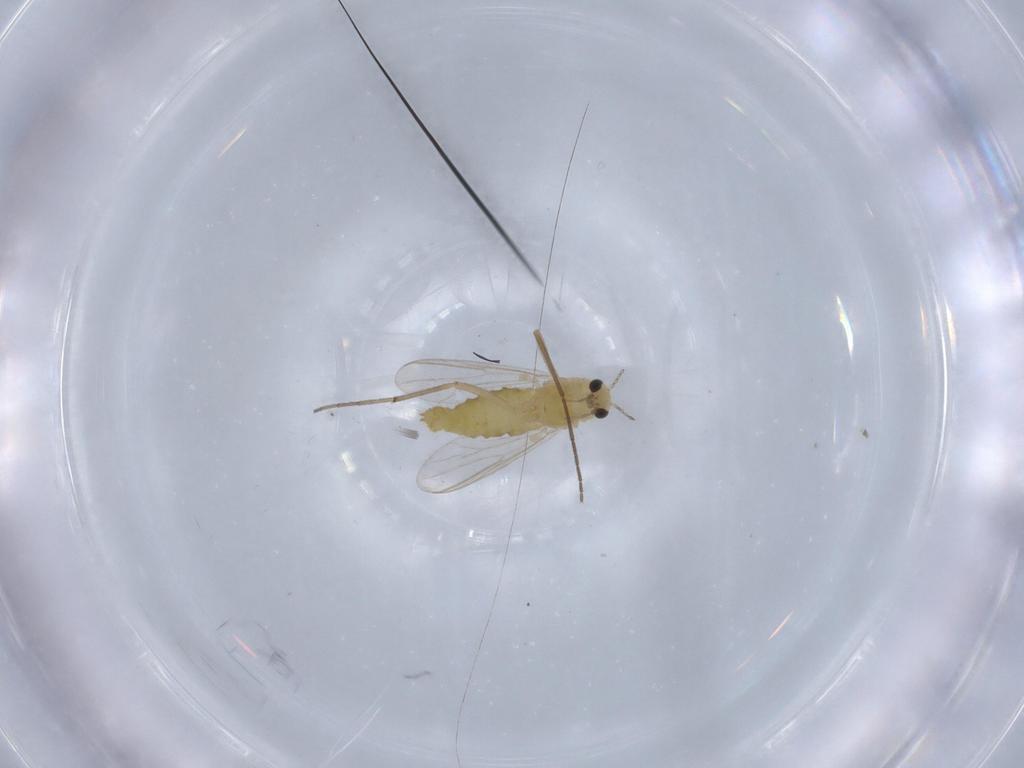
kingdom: Animalia
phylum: Arthropoda
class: Insecta
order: Diptera
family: Chironomidae
